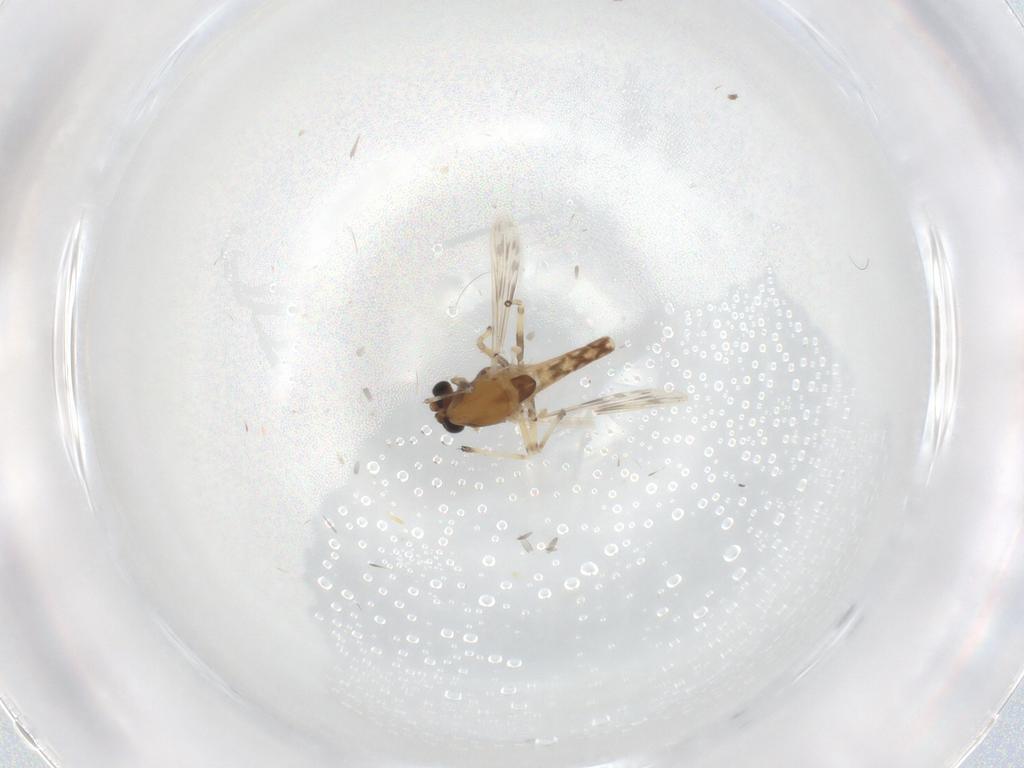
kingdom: Animalia
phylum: Arthropoda
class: Insecta
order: Diptera
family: Chironomidae
